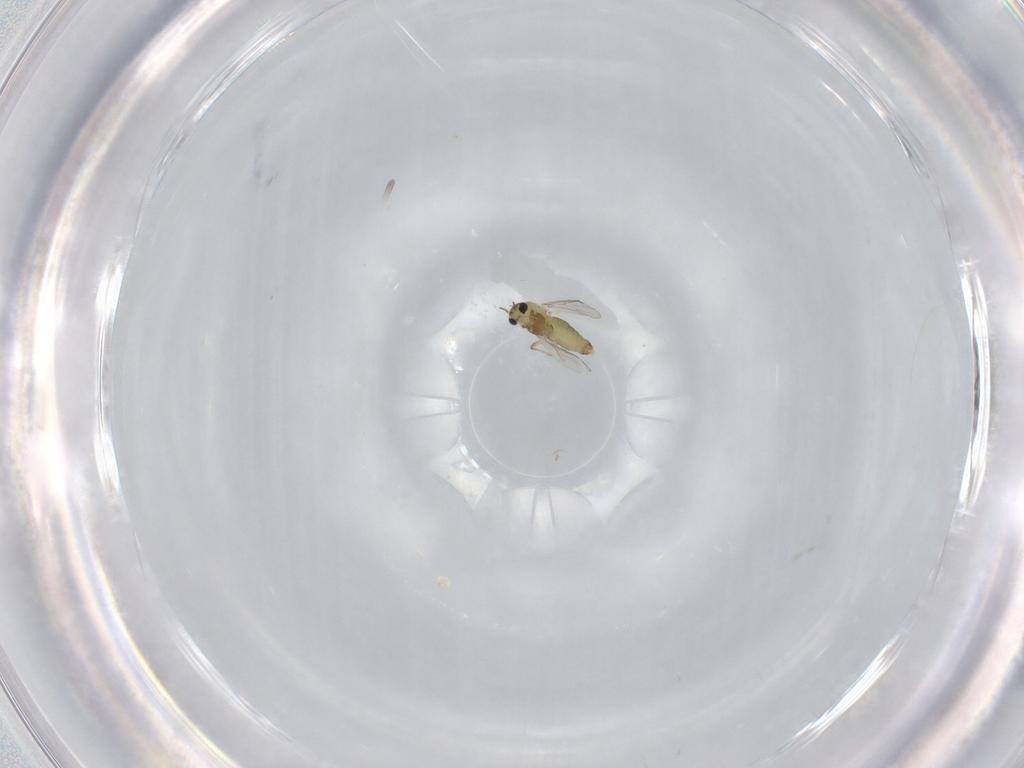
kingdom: Animalia
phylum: Arthropoda
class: Insecta
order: Diptera
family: Chironomidae
